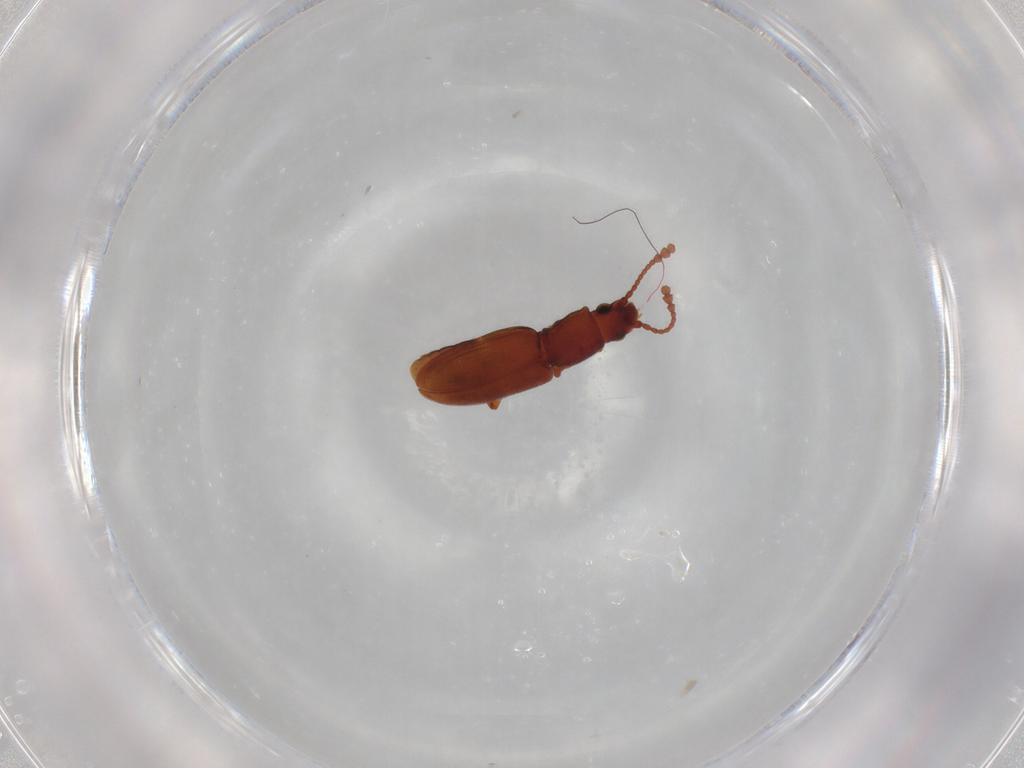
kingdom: Animalia
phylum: Arthropoda
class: Insecta
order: Coleoptera
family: Silvanidae
